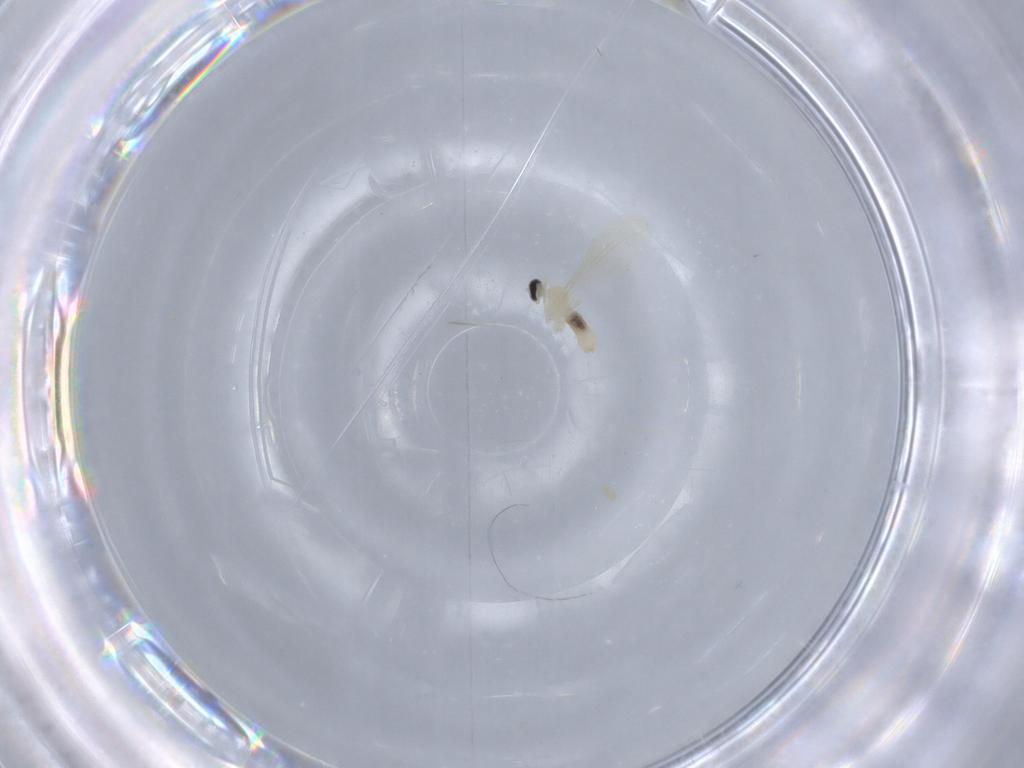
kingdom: Animalia
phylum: Arthropoda
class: Insecta
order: Diptera
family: Cecidomyiidae
